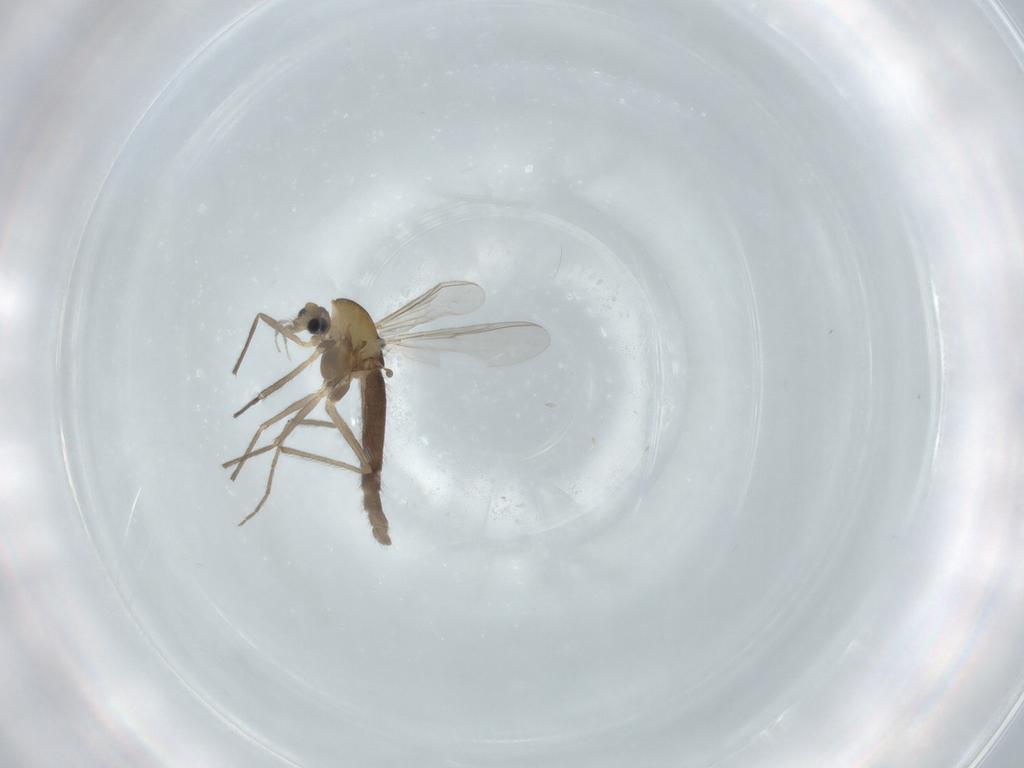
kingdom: Animalia
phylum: Arthropoda
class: Insecta
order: Diptera
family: Chironomidae
